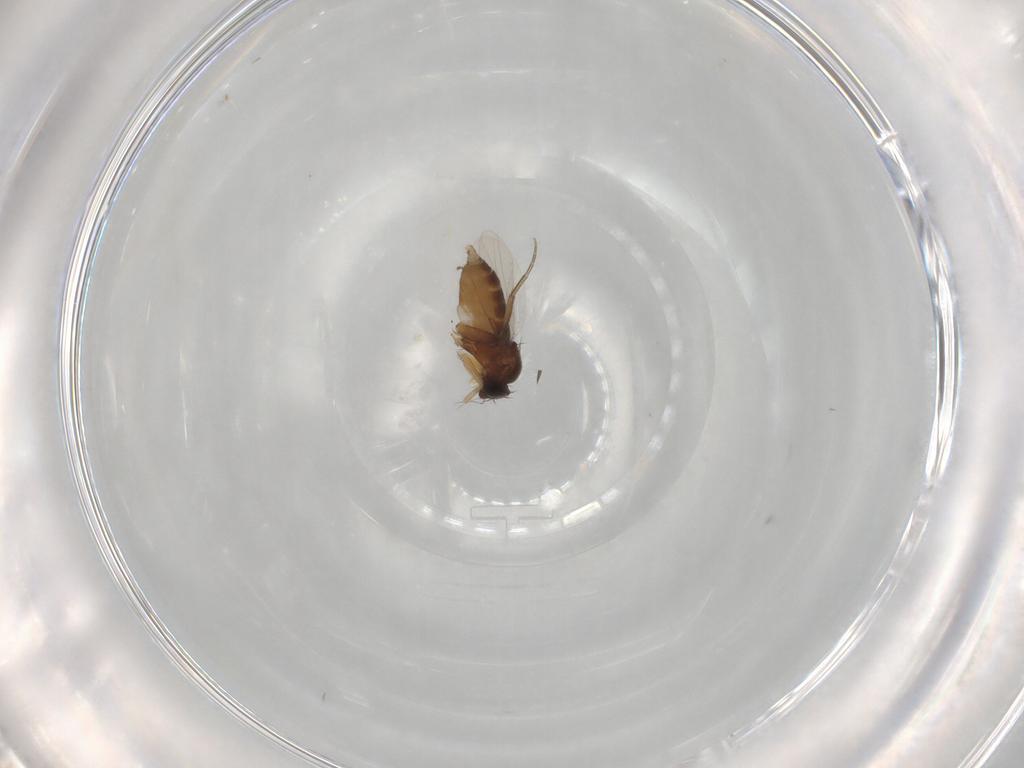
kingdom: Animalia
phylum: Arthropoda
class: Insecta
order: Diptera
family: Phoridae
